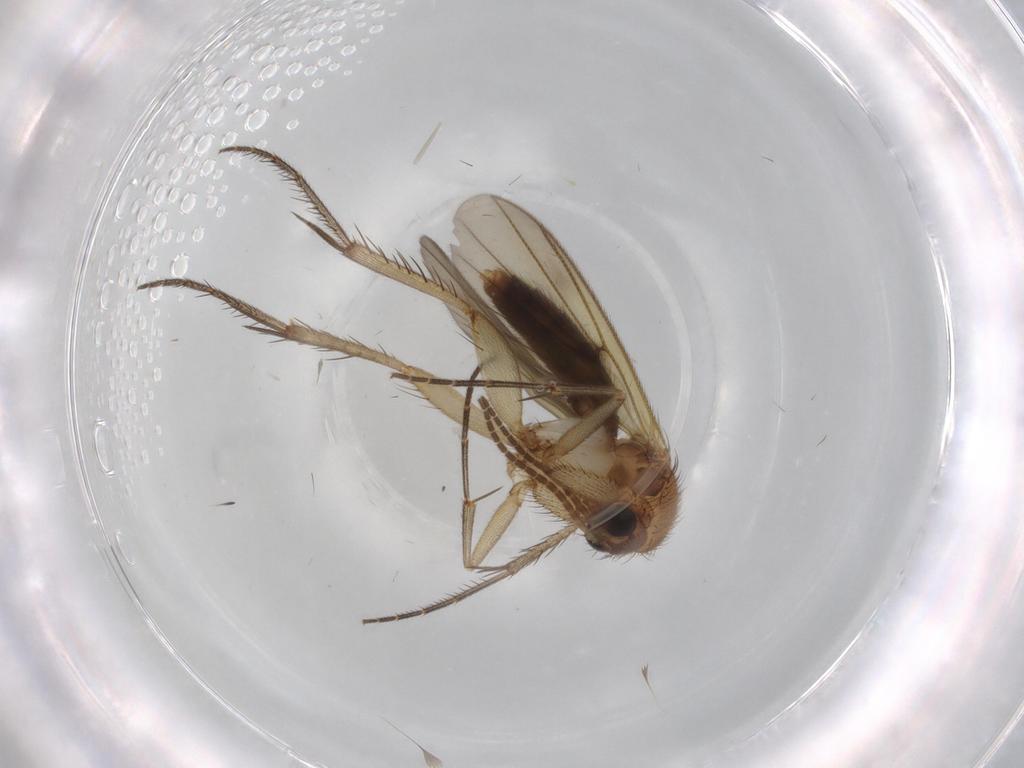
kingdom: Animalia
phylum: Arthropoda
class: Insecta
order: Diptera
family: Mycetophilidae
